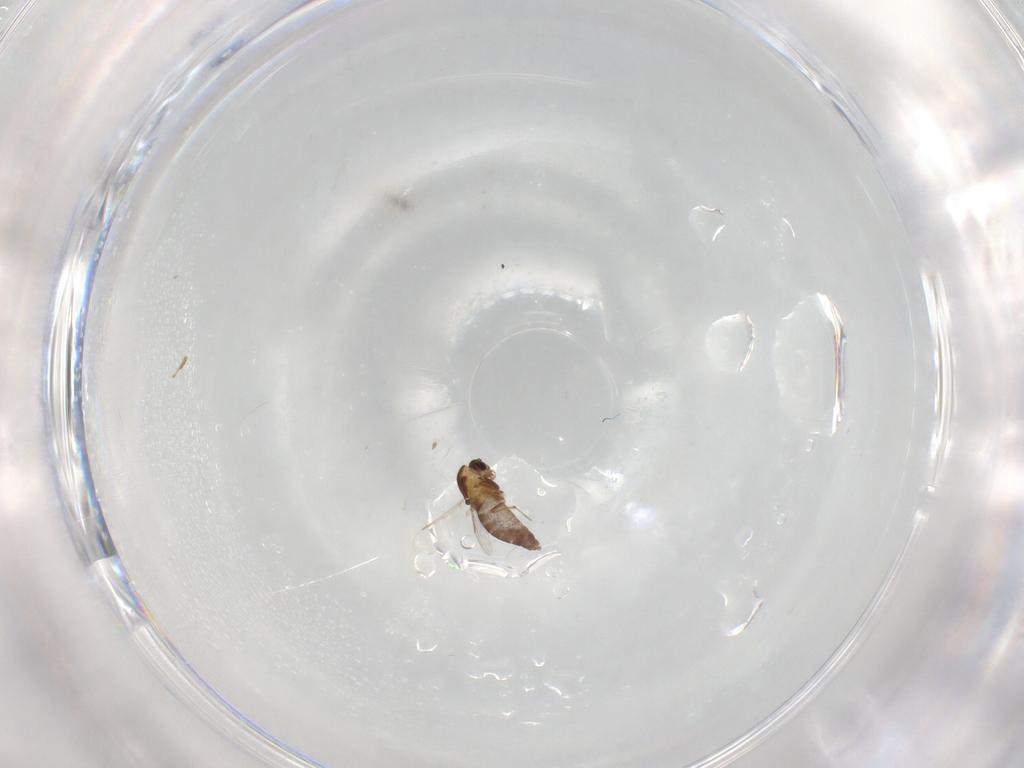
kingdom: Animalia
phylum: Arthropoda
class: Insecta
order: Diptera
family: Chironomidae
